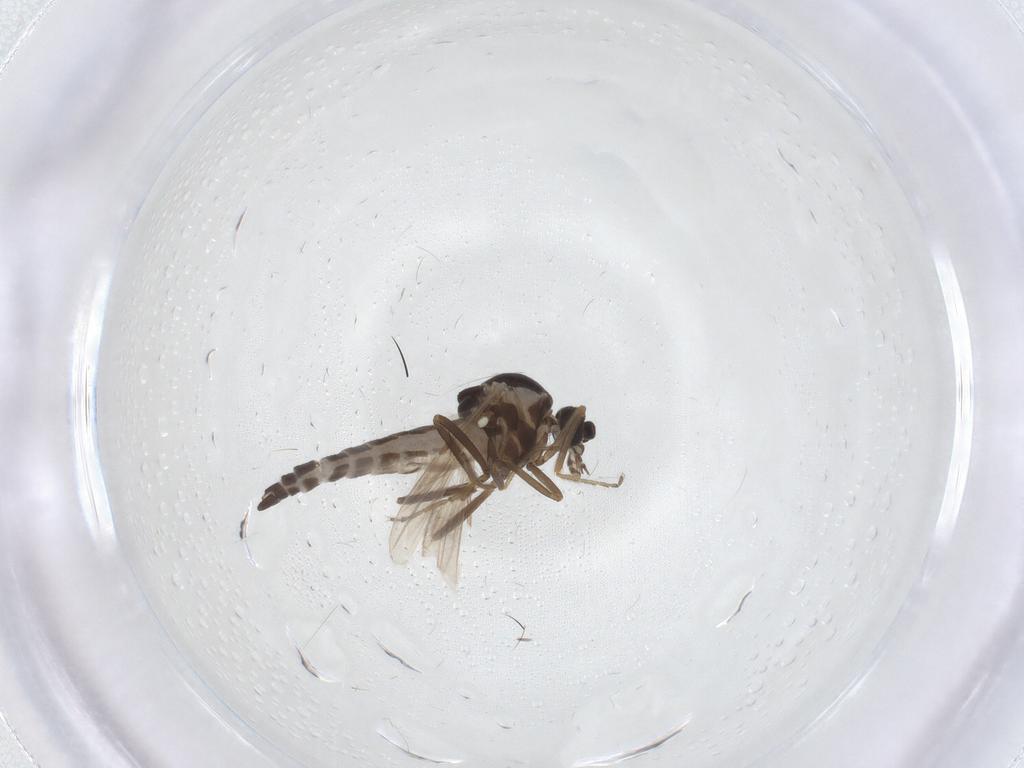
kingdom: Animalia
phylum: Arthropoda
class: Insecta
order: Diptera
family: Ceratopogonidae
